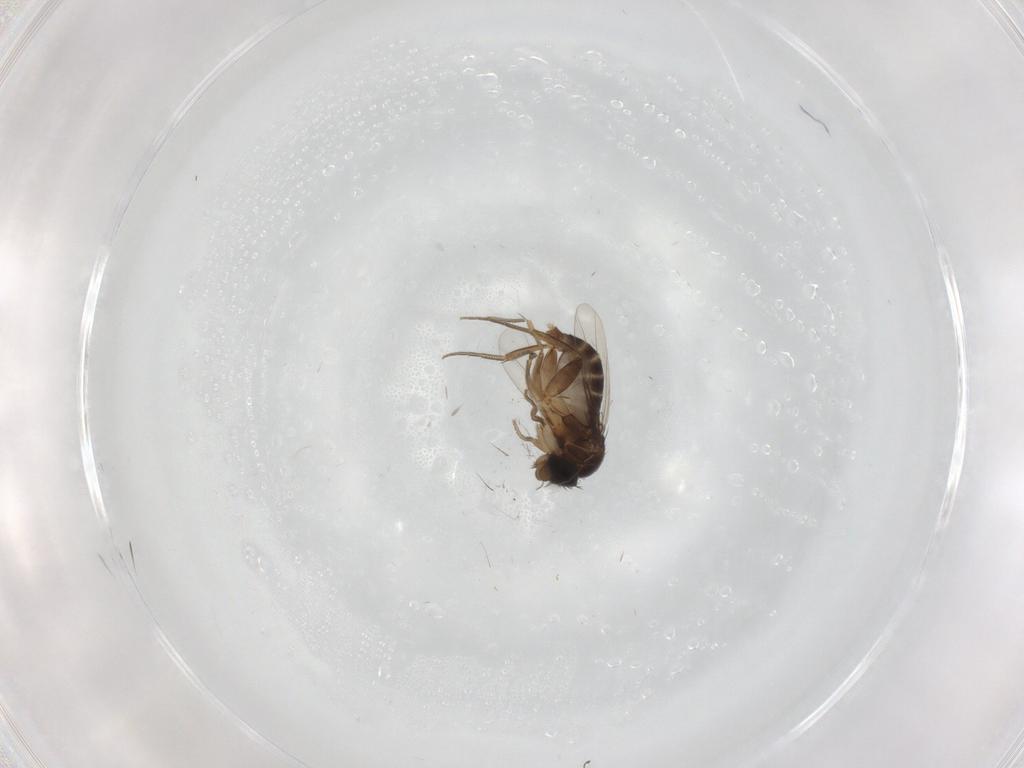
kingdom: Animalia
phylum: Arthropoda
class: Insecta
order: Diptera
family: Phoridae
